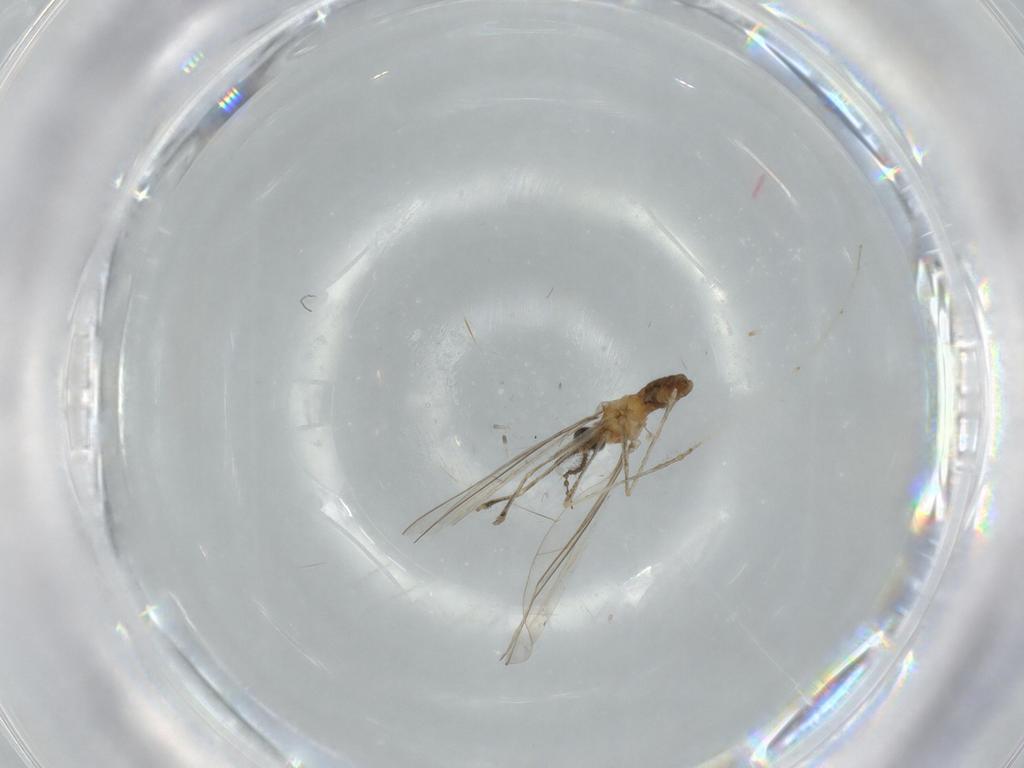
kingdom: Animalia
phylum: Arthropoda
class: Insecta
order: Diptera
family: Cecidomyiidae
